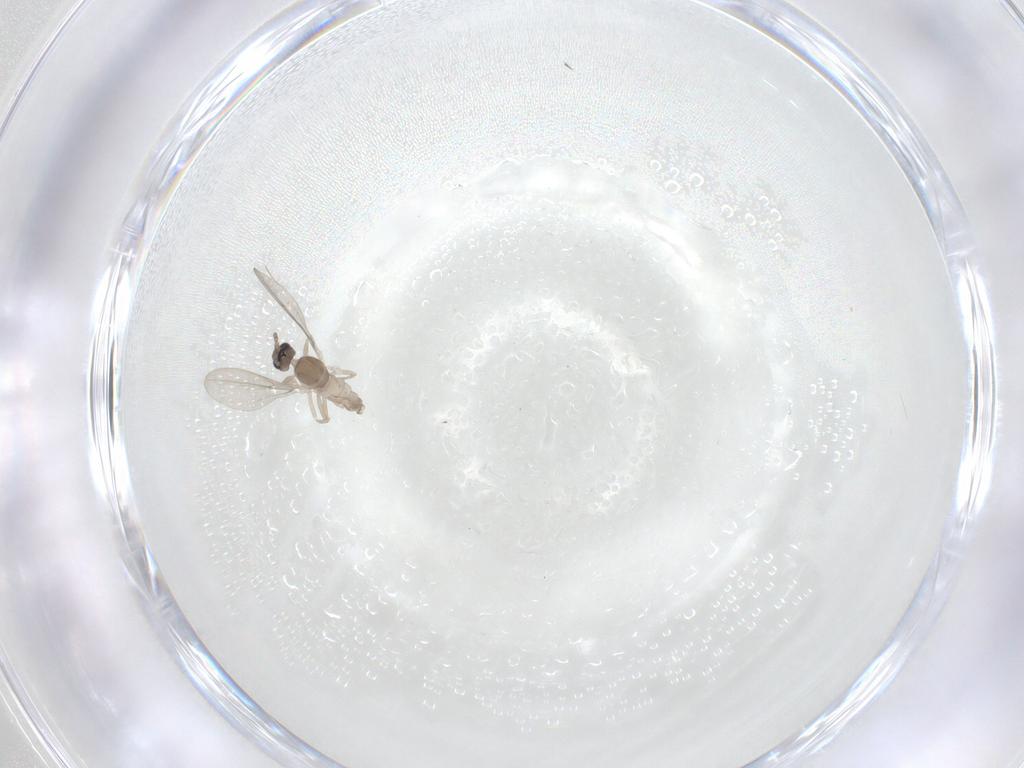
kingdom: Animalia
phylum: Arthropoda
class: Insecta
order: Diptera
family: Cecidomyiidae
